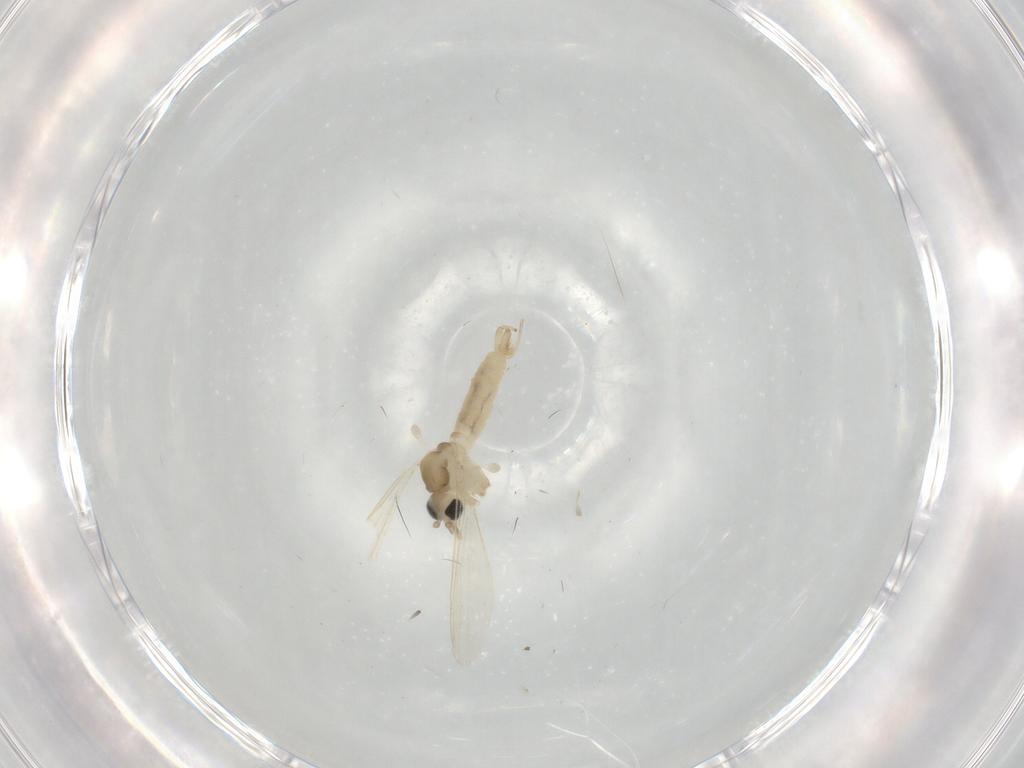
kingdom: Animalia
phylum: Arthropoda
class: Insecta
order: Diptera
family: Psychodidae
